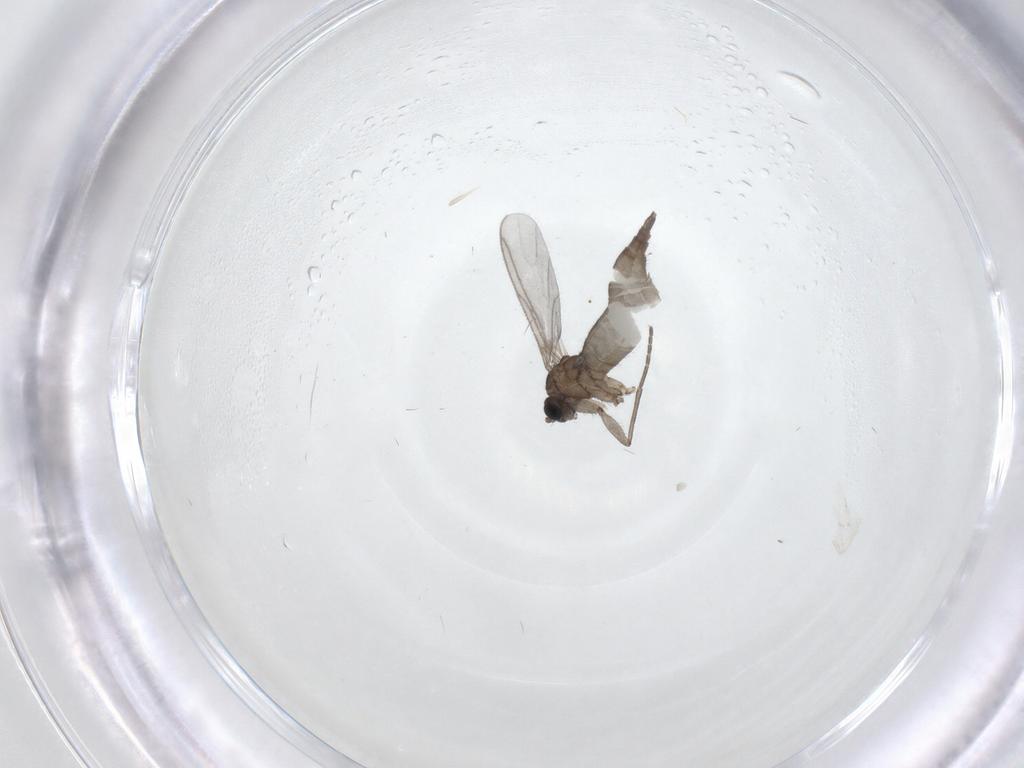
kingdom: Animalia
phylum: Arthropoda
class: Insecta
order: Diptera
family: Sciaridae
